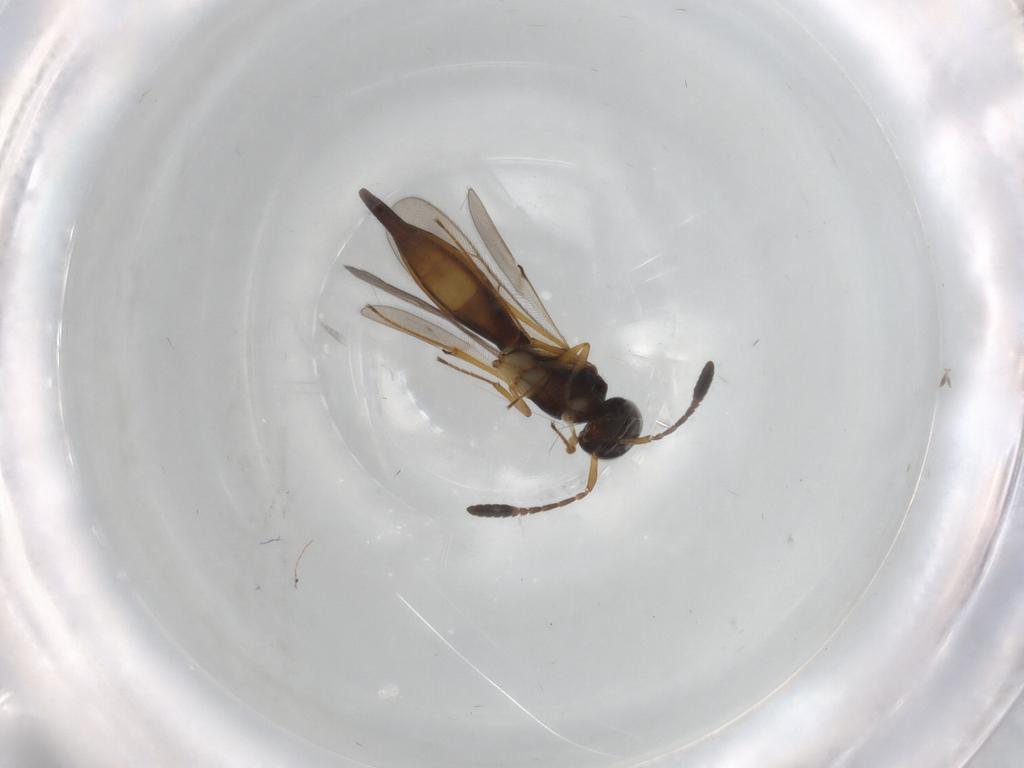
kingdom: Animalia
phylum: Arthropoda
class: Insecta
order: Hymenoptera
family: Scelionidae
